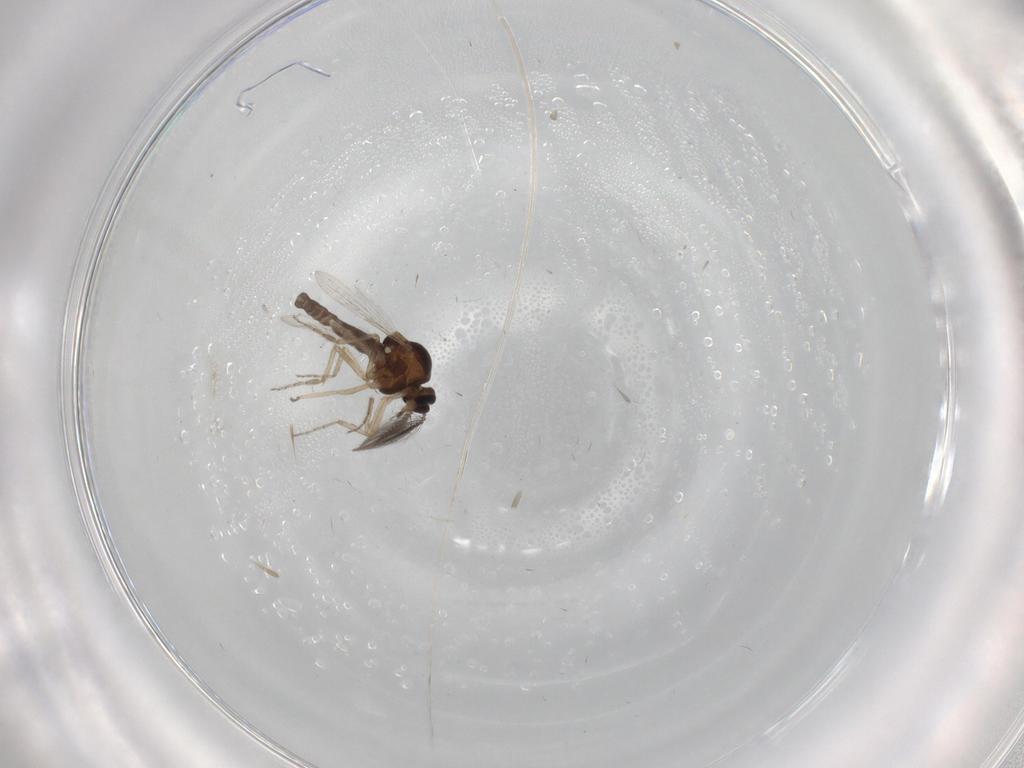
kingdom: Animalia
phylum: Arthropoda
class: Insecta
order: Diptera
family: Ceratopogonidae
